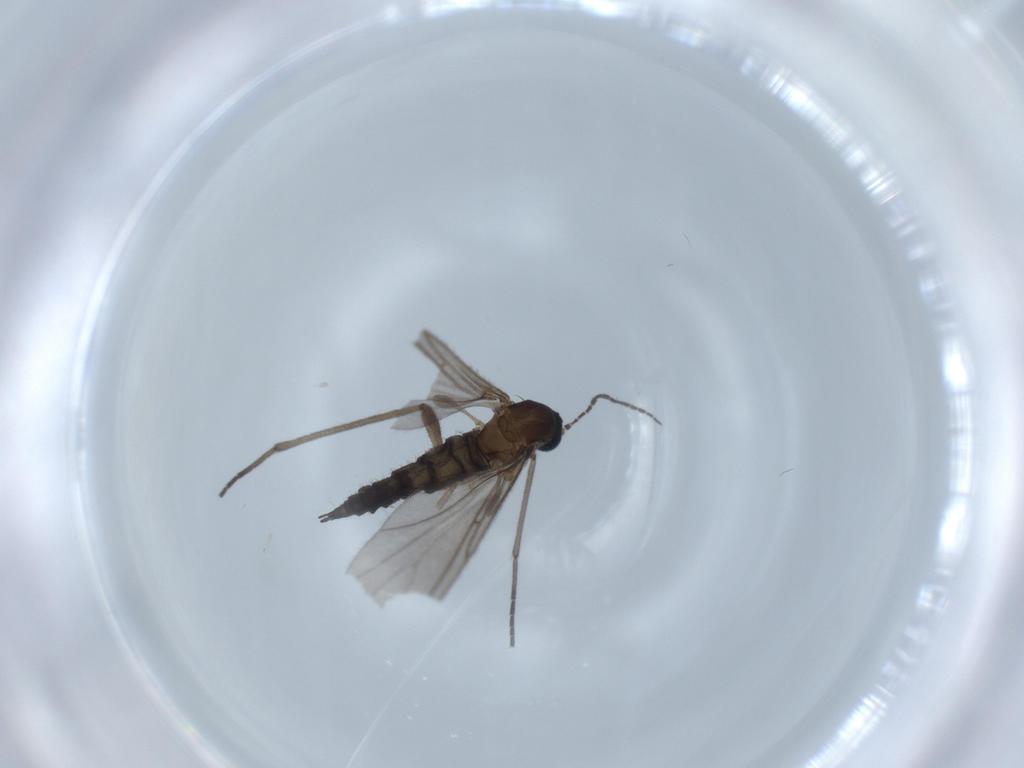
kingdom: Animalia
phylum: Arthropoda
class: Insecta
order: Diptera
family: Sciaridae
